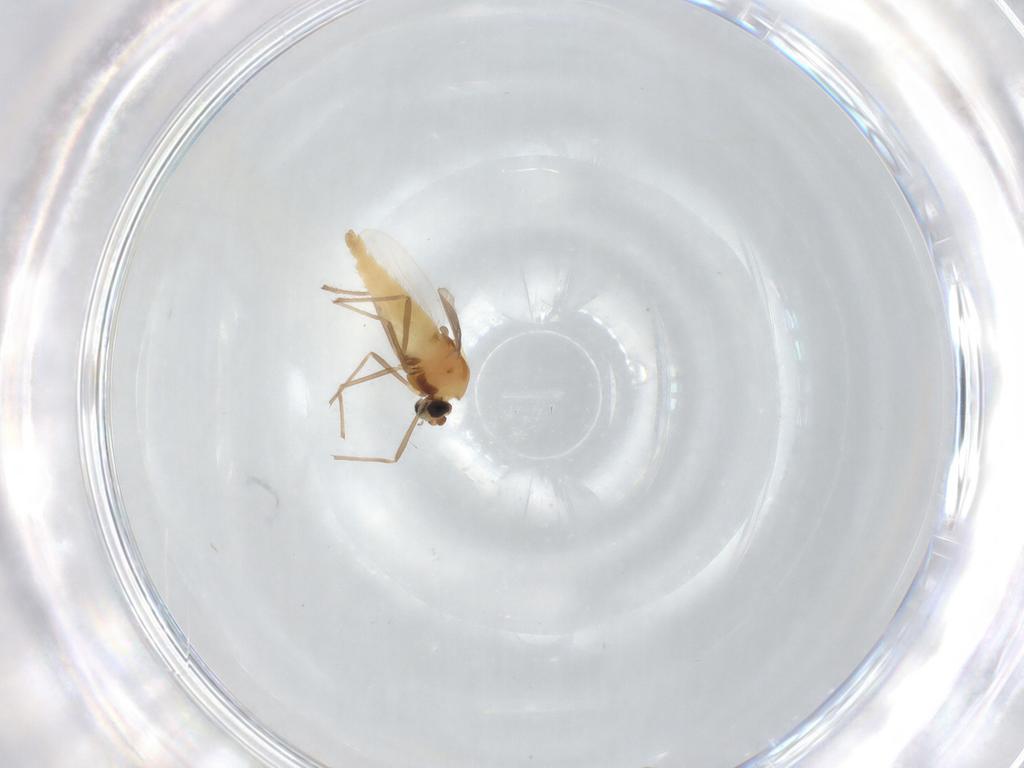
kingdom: Animalia
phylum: Arthropoda
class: Insecta
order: Diptera
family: Chironomidae
